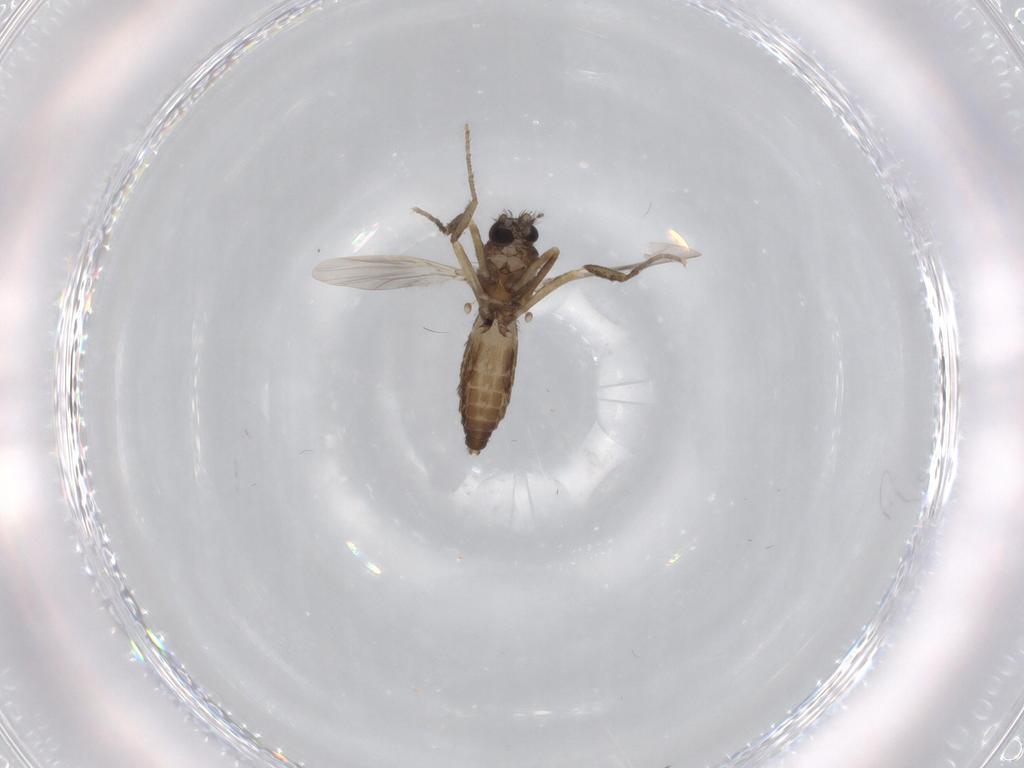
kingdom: Animalia
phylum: Arthropoda
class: Insecta
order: Diptera
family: Ceratopogonidae
